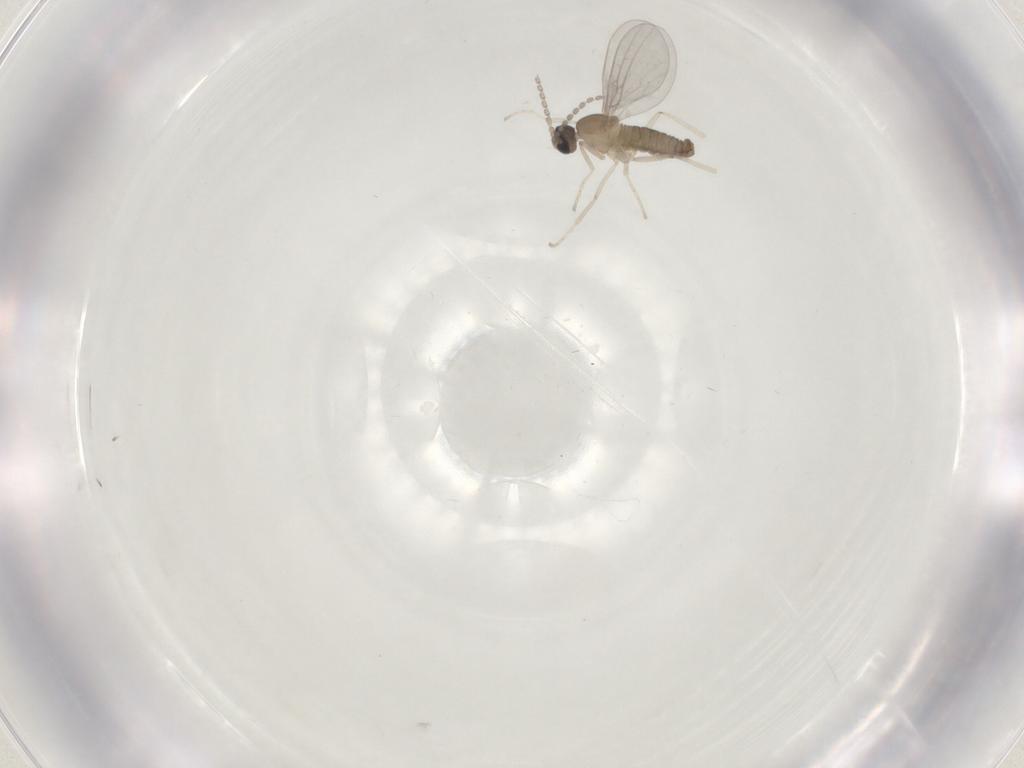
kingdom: Animalia
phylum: Arthropoda
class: Insecta
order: Diptera
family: Cecidomyiidae
